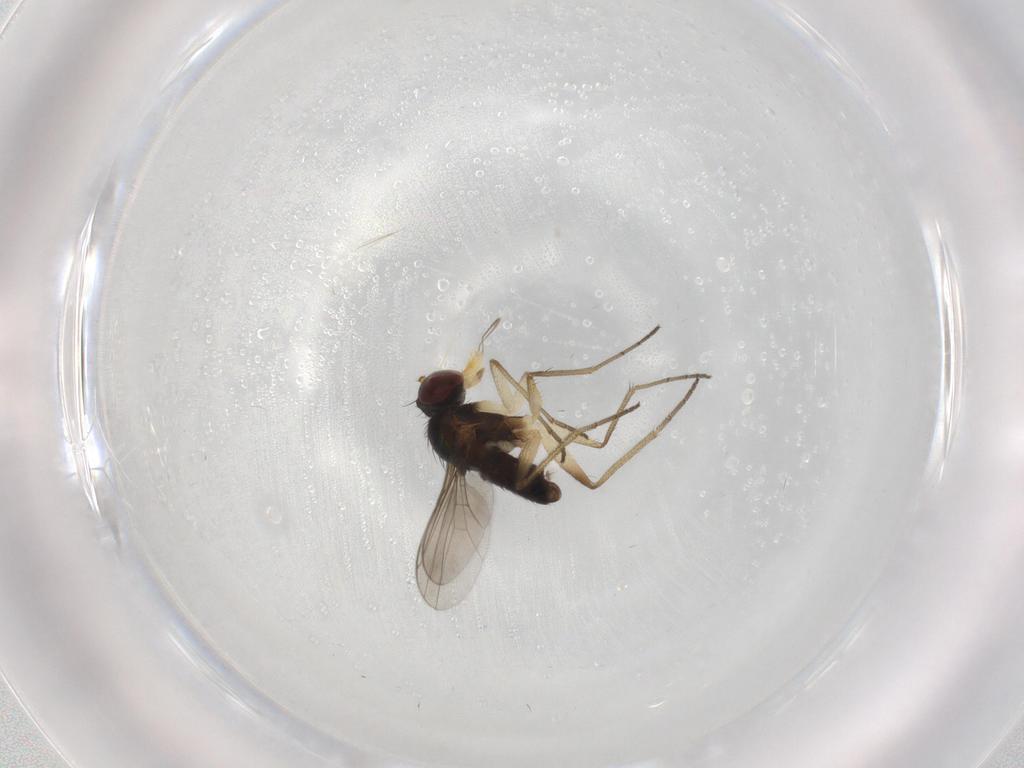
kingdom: Animalia
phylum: Arthropoda
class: Insecta
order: Diptera
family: Dolichopodidae
